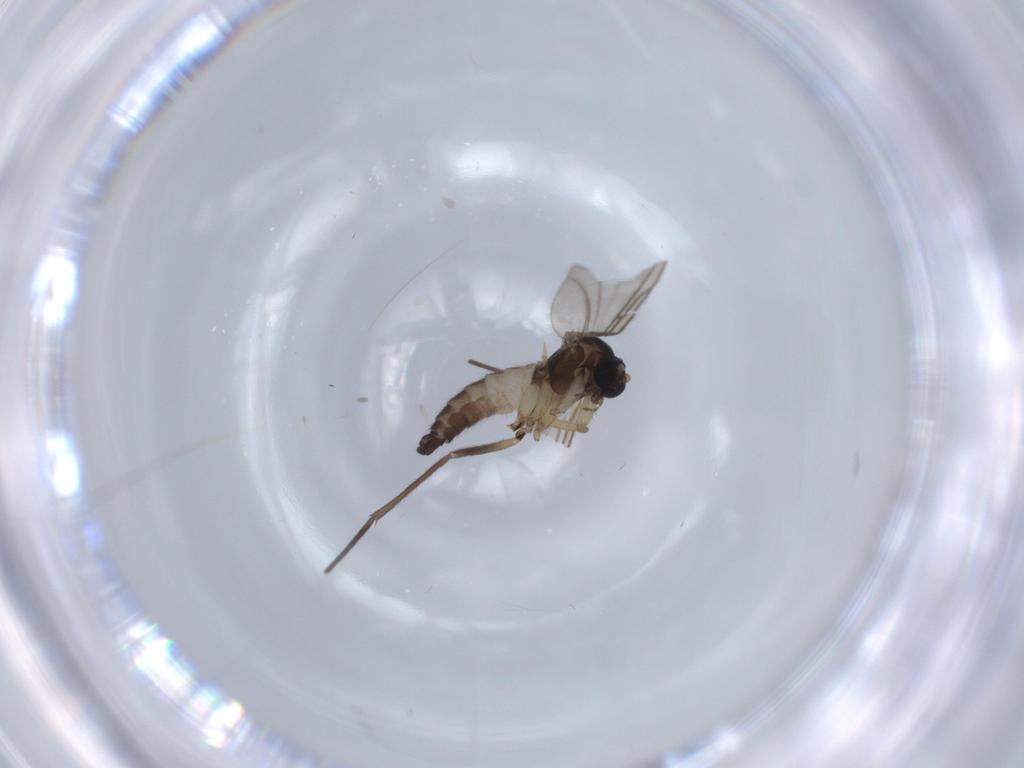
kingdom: Animalia
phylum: Arthropoda
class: Insecta
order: Diptera
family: Sciaridae
